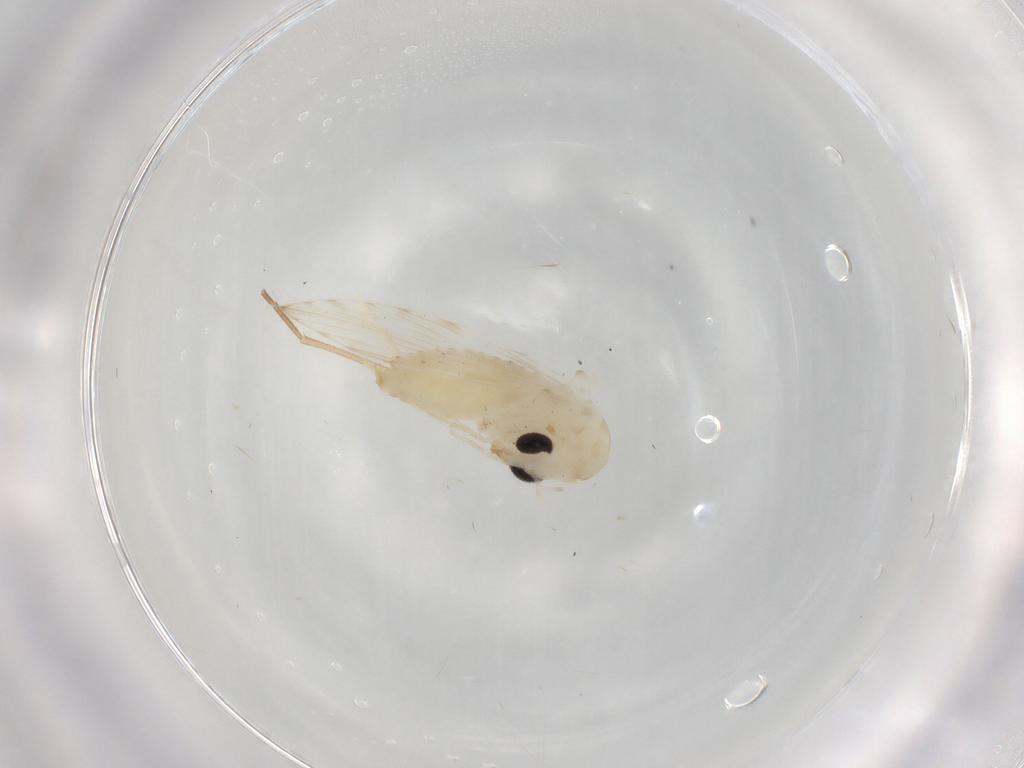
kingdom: Animalia
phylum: Arthropoda
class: Insecta
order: Diptera
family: Psychodidae
